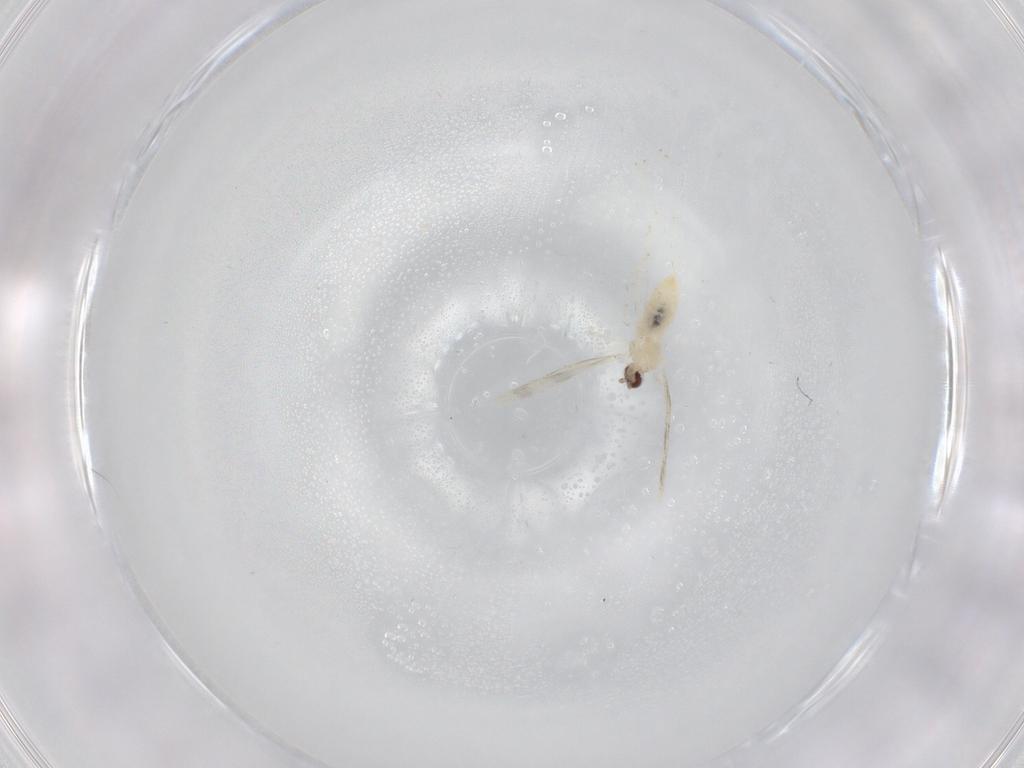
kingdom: Animalia
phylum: Arthropoda
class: Insecta
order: Diptera
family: Cecidomyiidae
